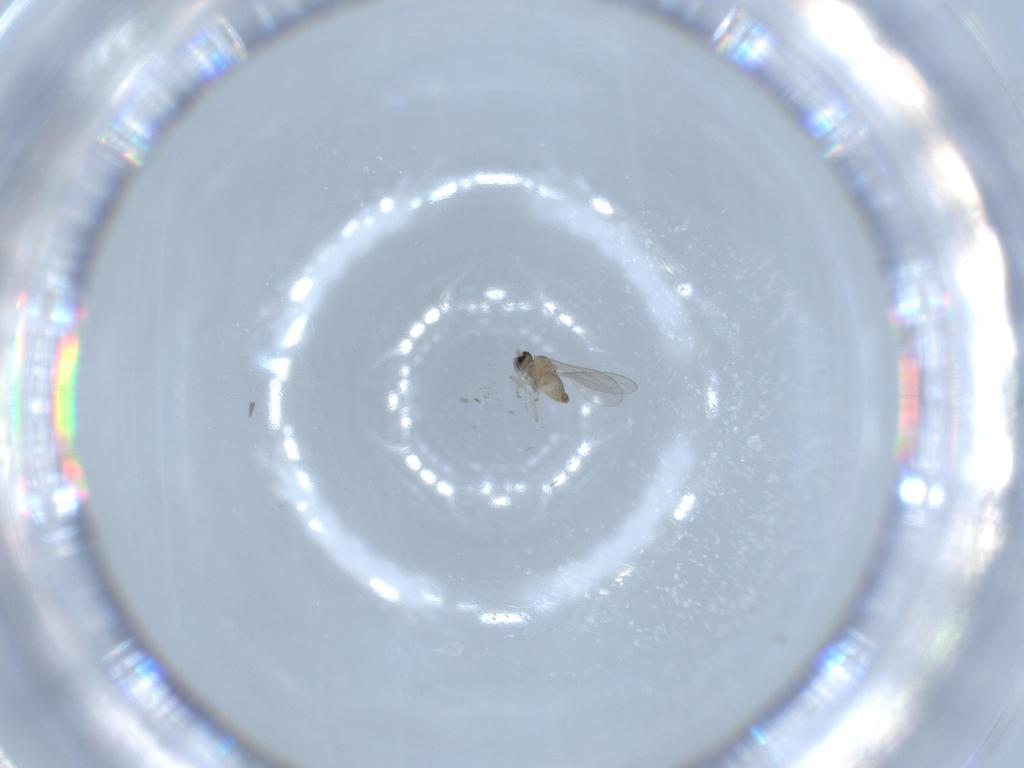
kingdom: Animalia
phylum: Arthropoda
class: Insecta
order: Diptera
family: Cecidomyiidae
